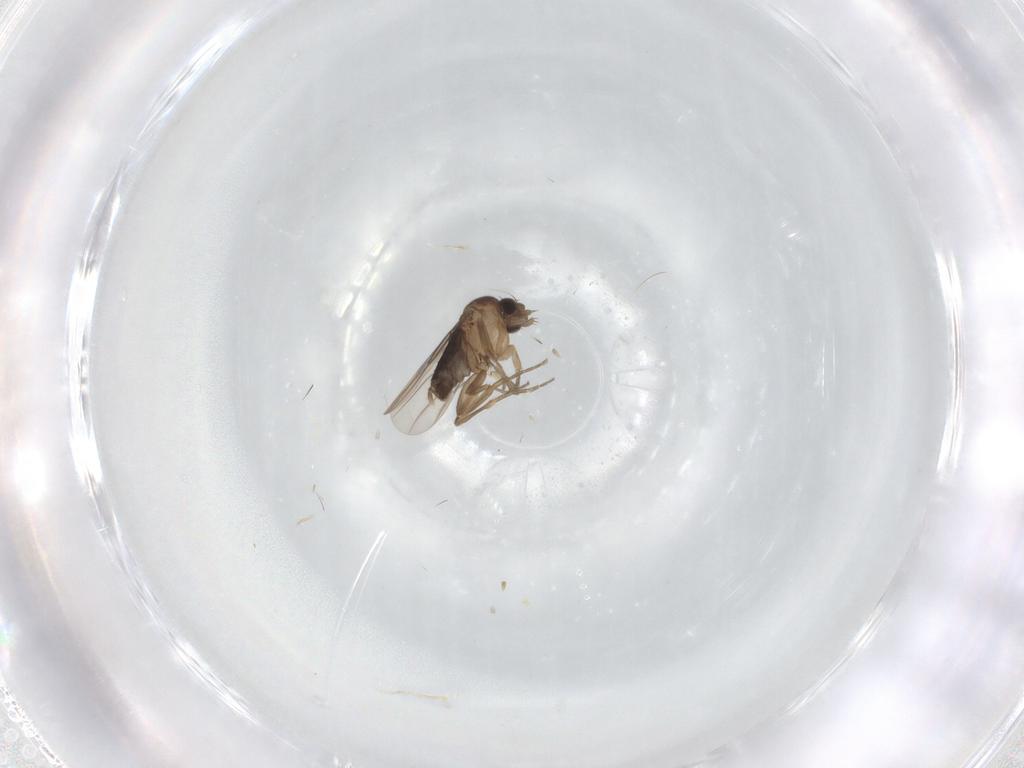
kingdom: Animalia
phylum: Arthropoda
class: Insecta
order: Diptera
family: Phoridae
